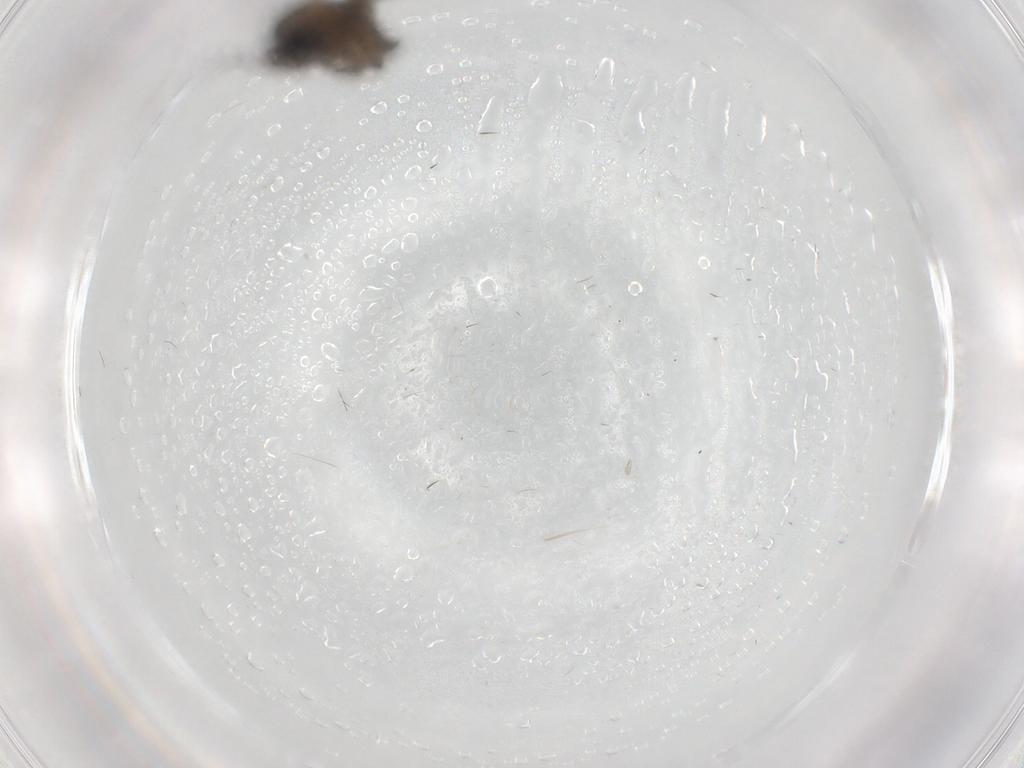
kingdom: Animalia
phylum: Arthropoda
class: Insecta
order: Diptera
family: Sciaridae
